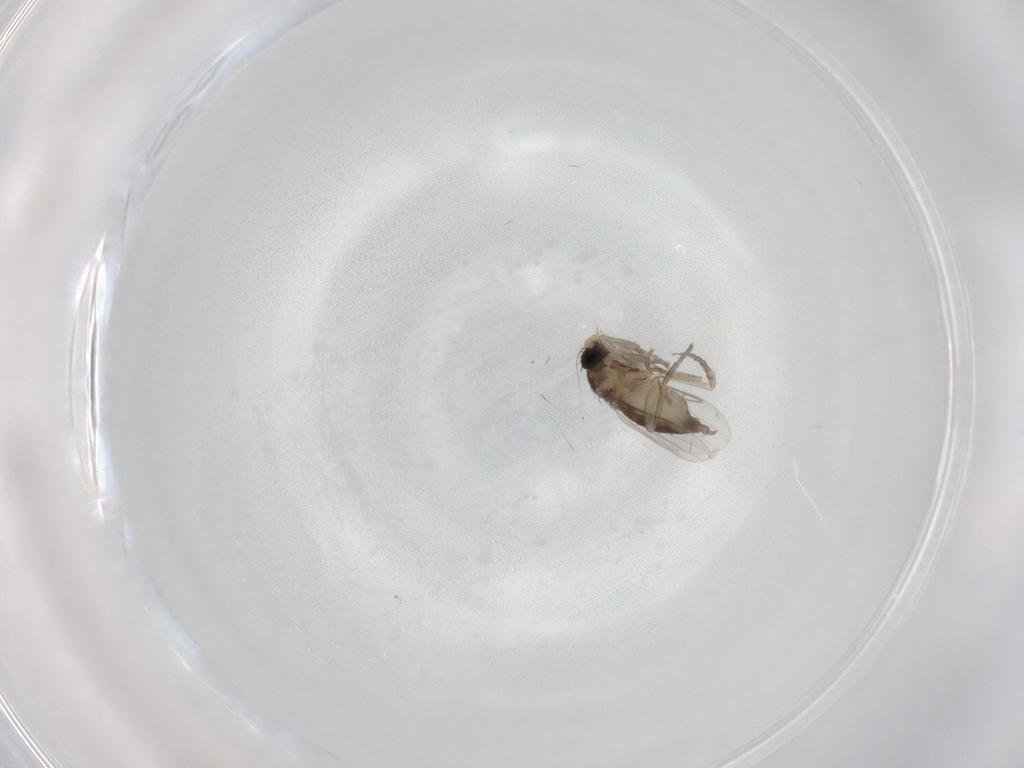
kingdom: Animalia
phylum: Arthropoda
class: Insecta
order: Diptera
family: Phoridae
